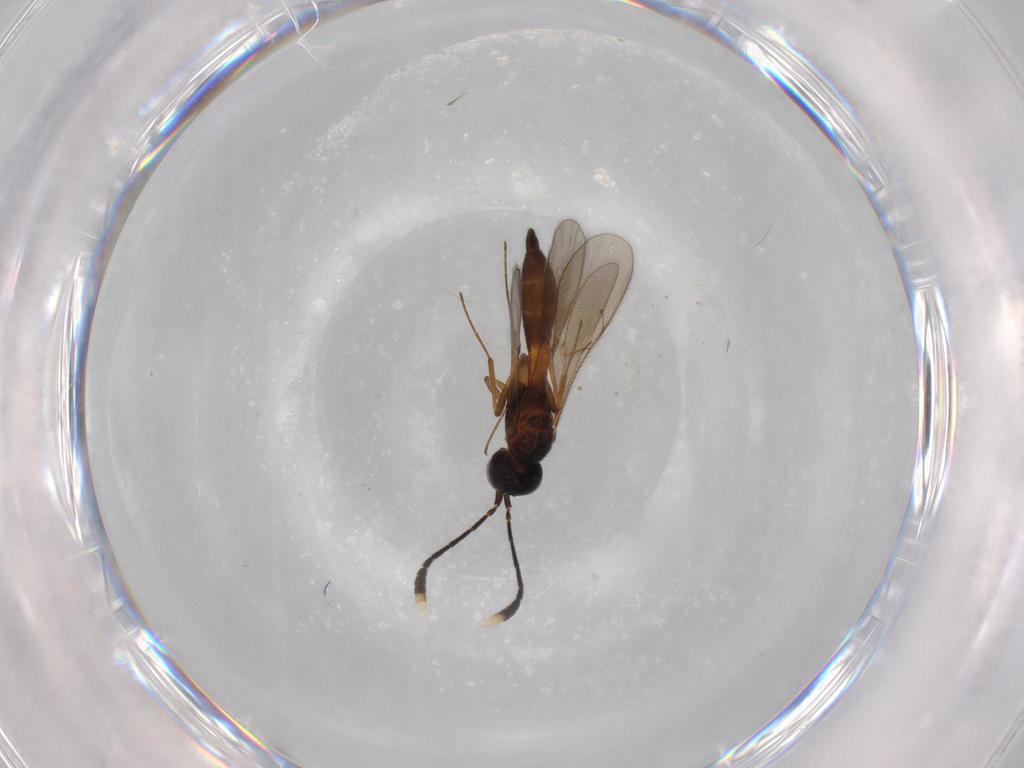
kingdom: Animalia
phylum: Arthropoda
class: Insecta
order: Hymenoptera
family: Scelionidae
